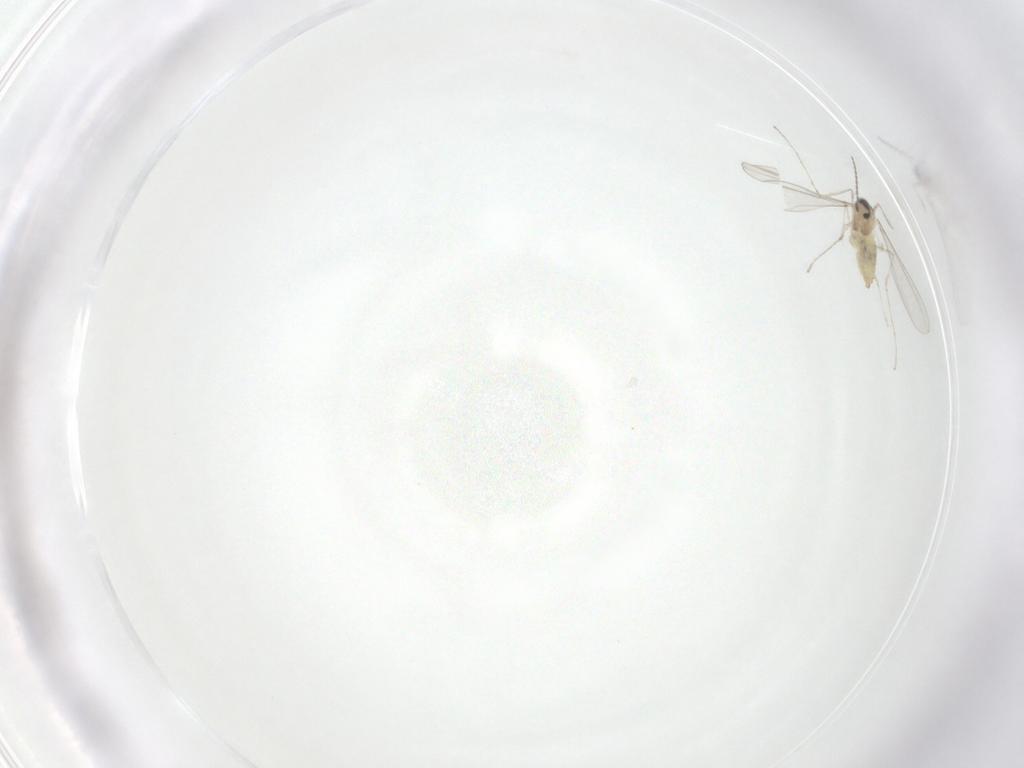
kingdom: Animalia
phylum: Arthropoda
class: Insecta
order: Diptera
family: Cecidomyiidae
